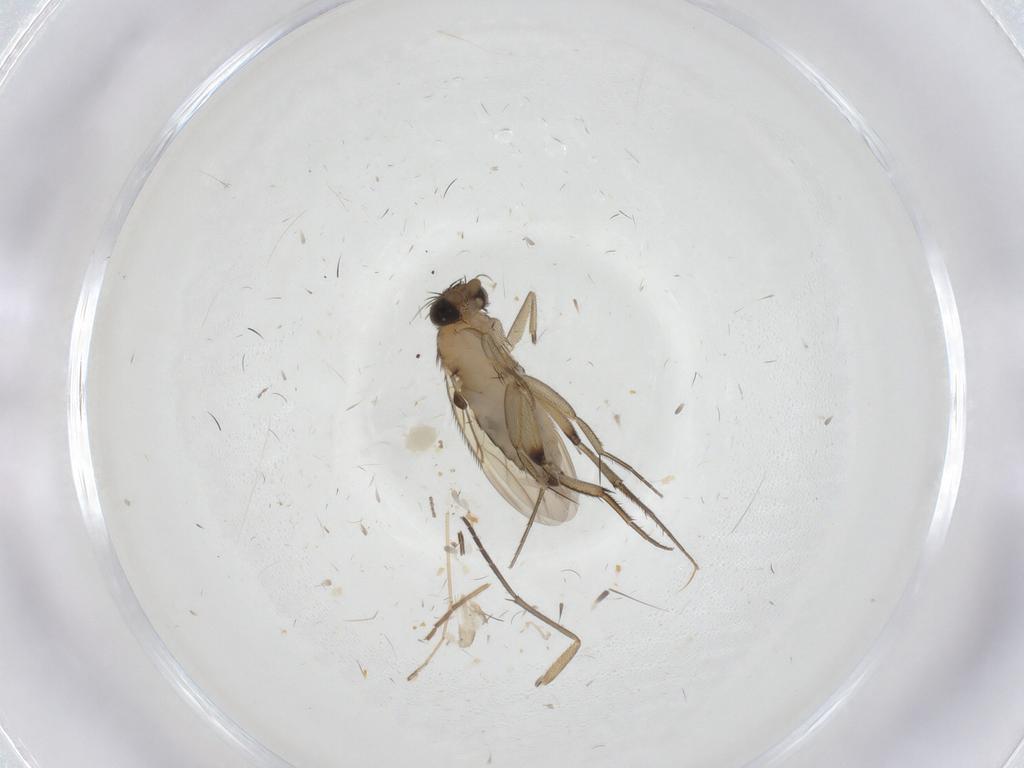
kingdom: Animalia
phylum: Arthropoda
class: Insecta
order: Diptera
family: Phoridae
